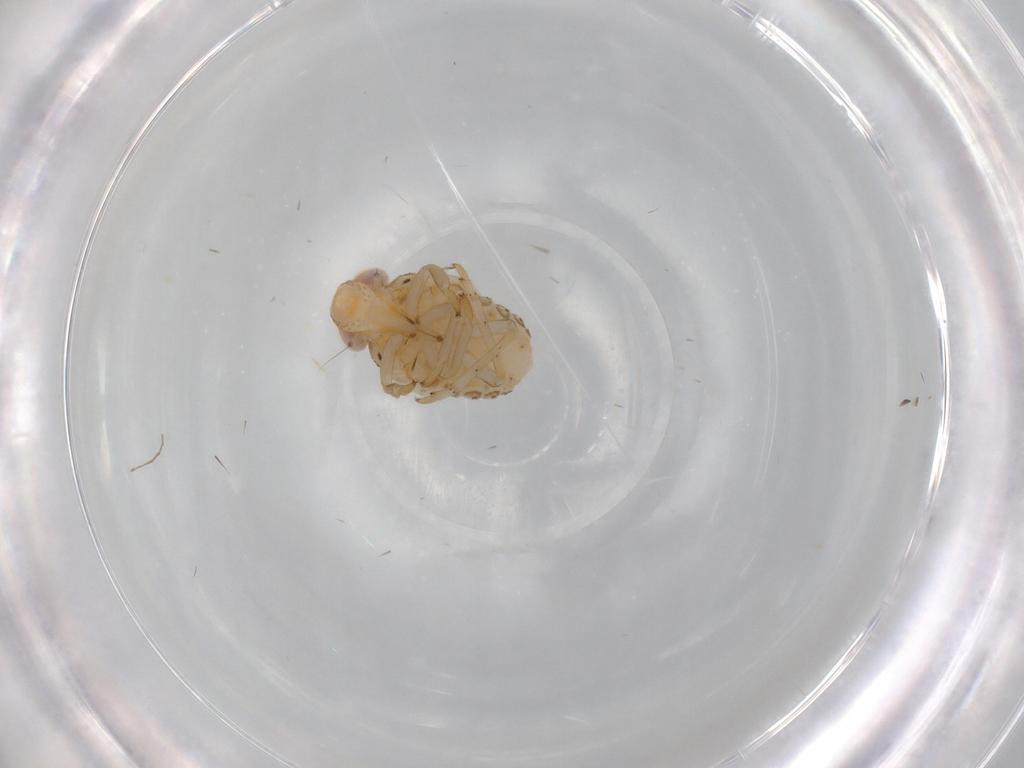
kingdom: Animalia
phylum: Arthropoda
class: Insecta
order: Hemiptera
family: Issidae
